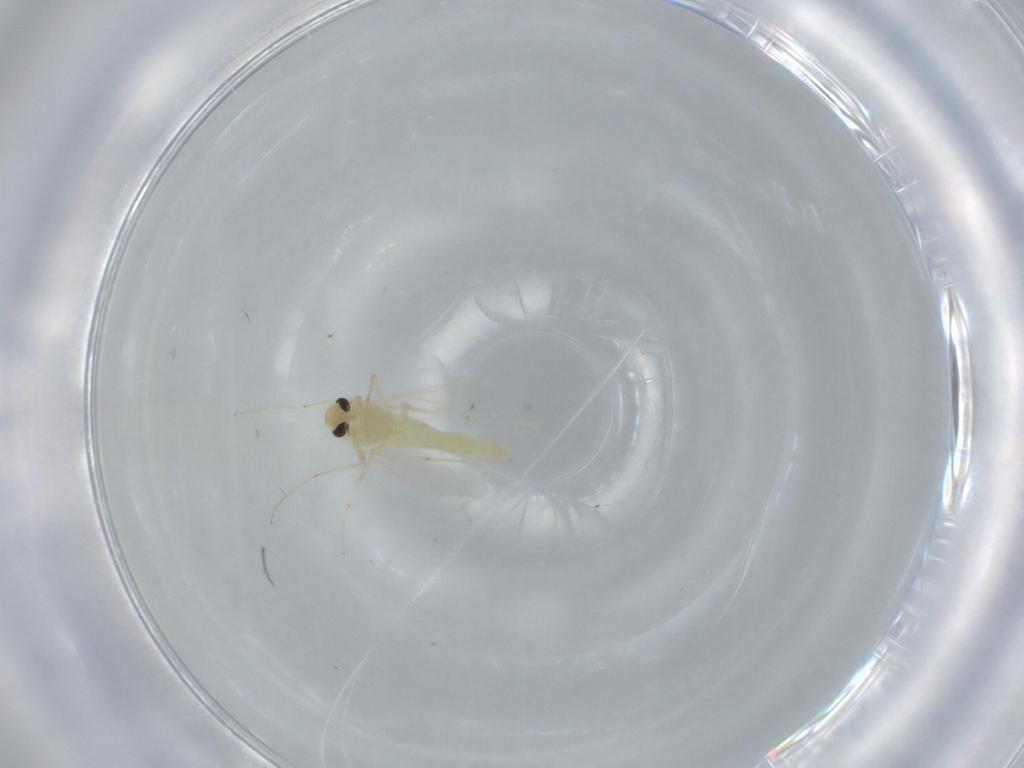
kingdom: Animalia
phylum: Arthropoda
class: Insecta
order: Diptera
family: Chironomidae
